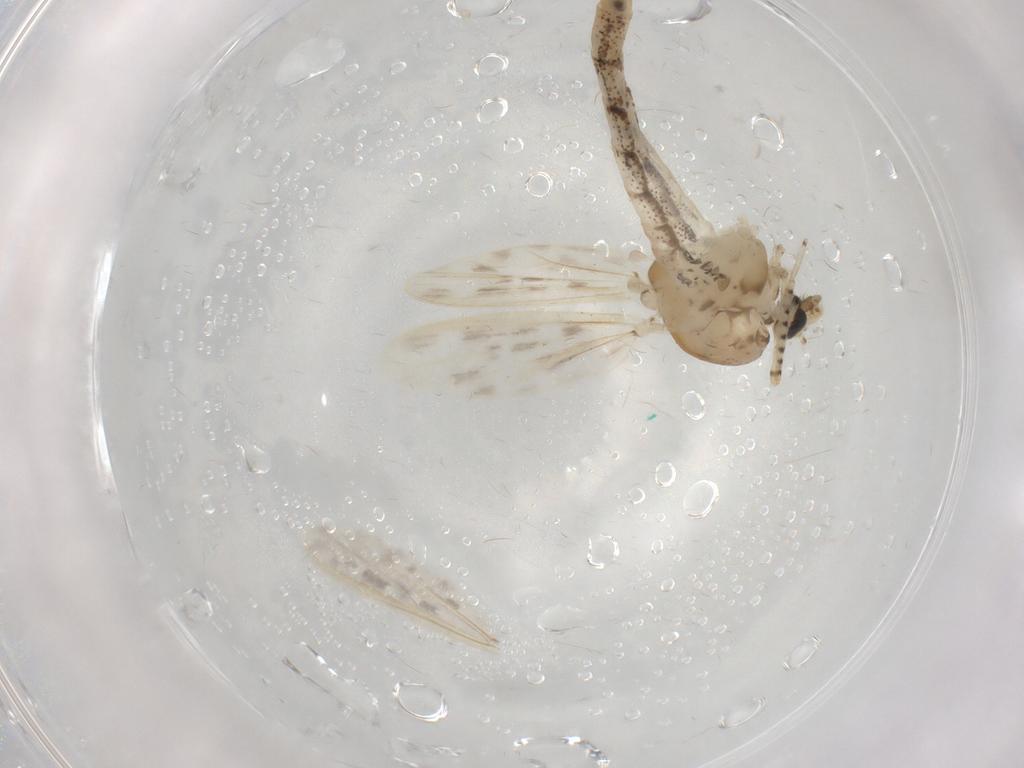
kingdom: Animalia
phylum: Arthropoda
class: Insecta
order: Diptera
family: Chaoboridae
